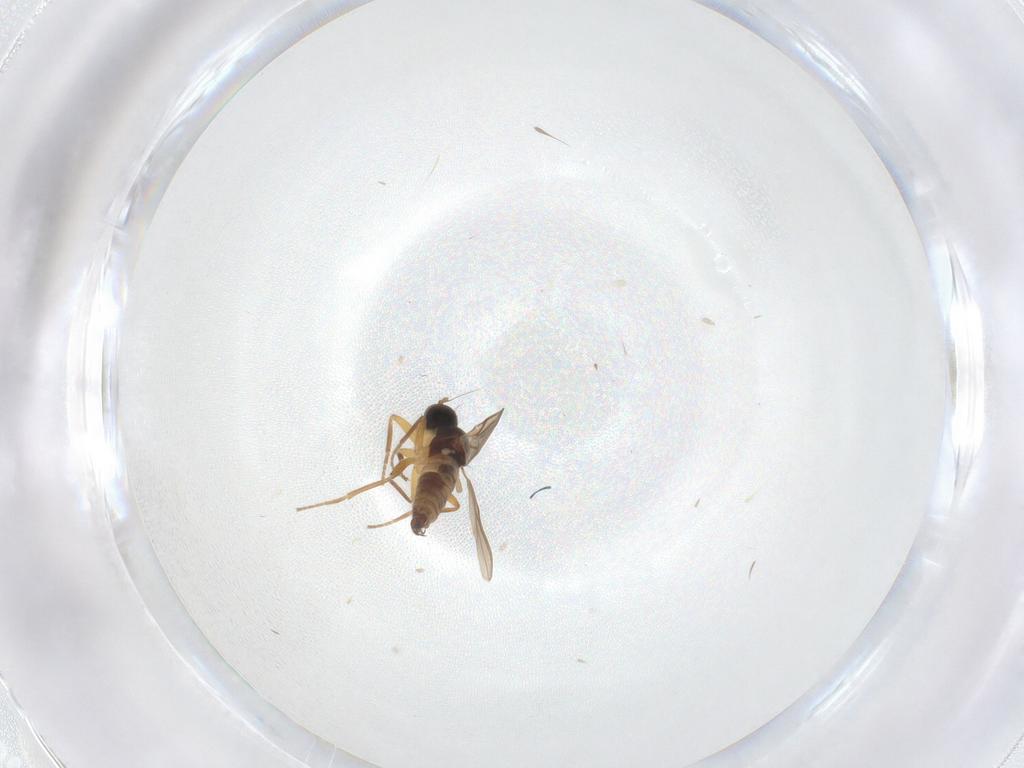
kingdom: Animalia
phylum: Arthropoda
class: Insecta
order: Diptera
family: Hybotidae
